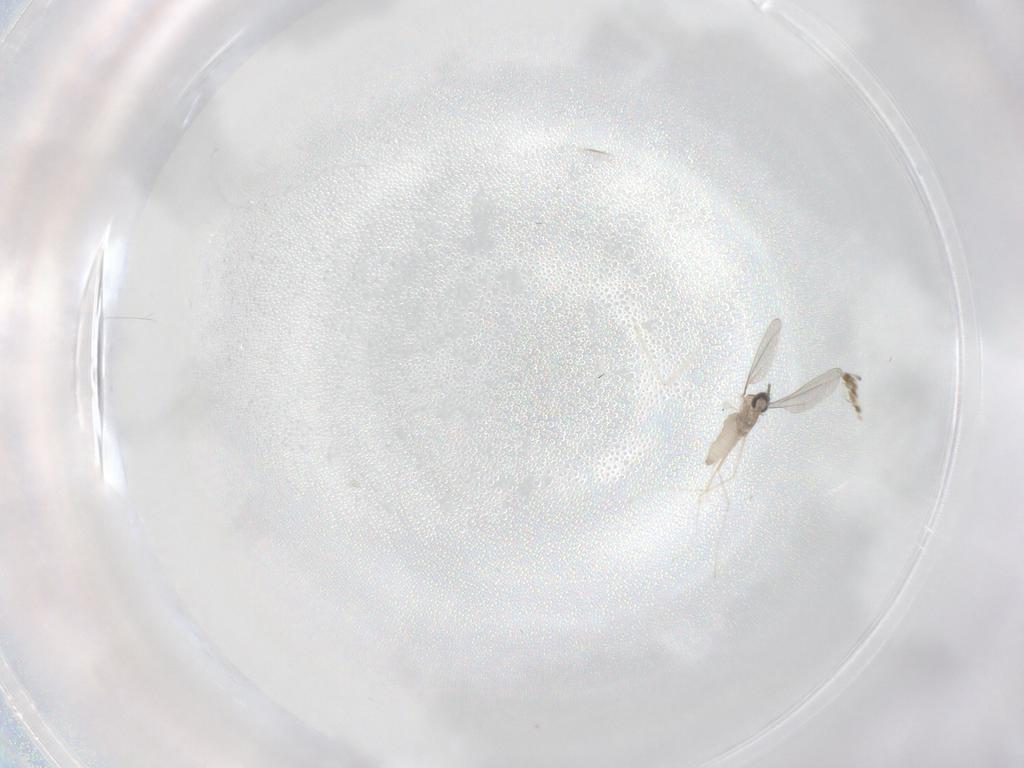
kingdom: Animalia
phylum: Arthropoda
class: Insecta
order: Diptera
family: Cecidomyiidae
